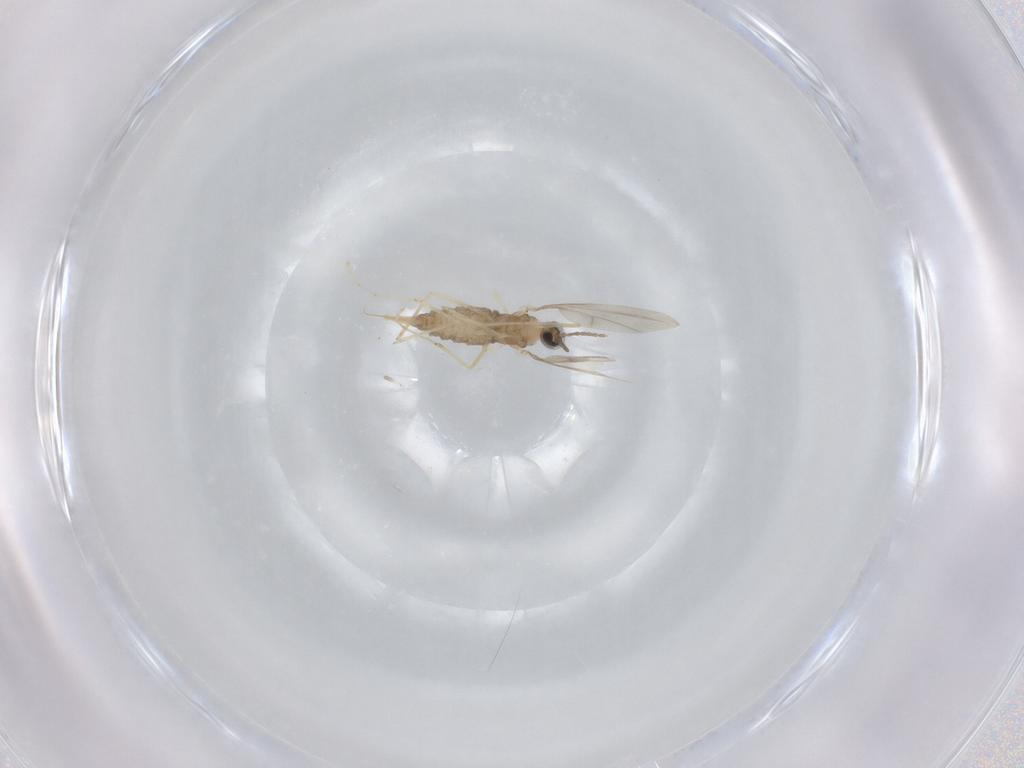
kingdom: Animalia
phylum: Arthropoda
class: Insecta
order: Diptera
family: Cecidomyiidae
